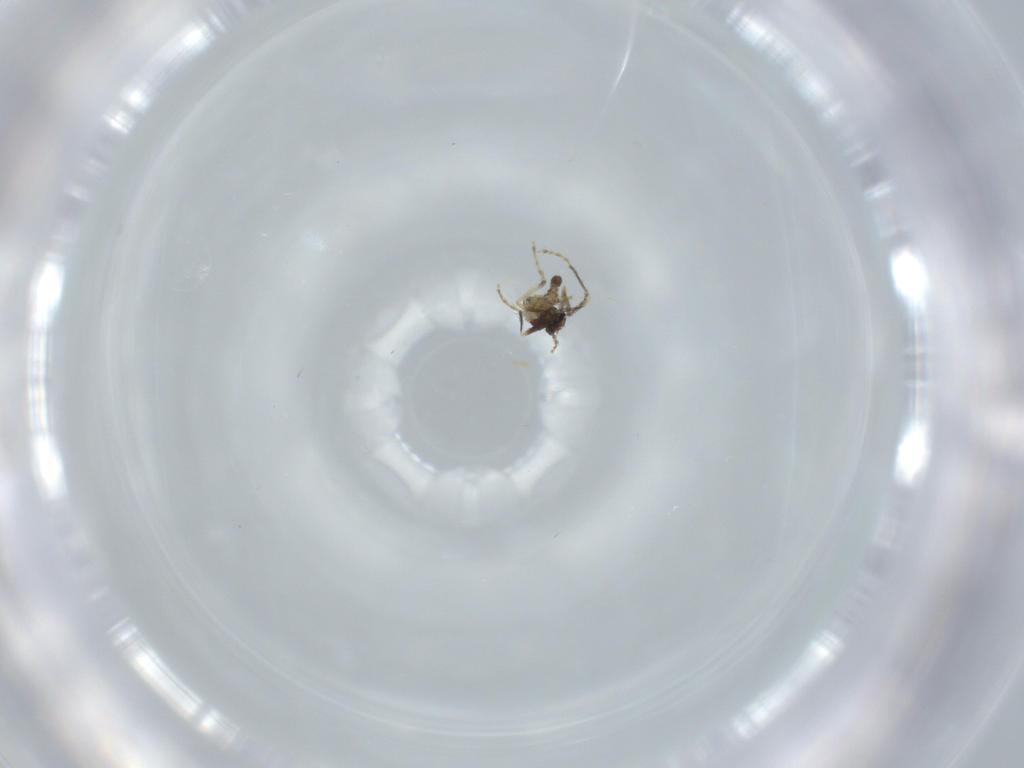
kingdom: Animalia
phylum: Arthropoda
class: Insecta
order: Diptera
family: Ceratopogonidae
